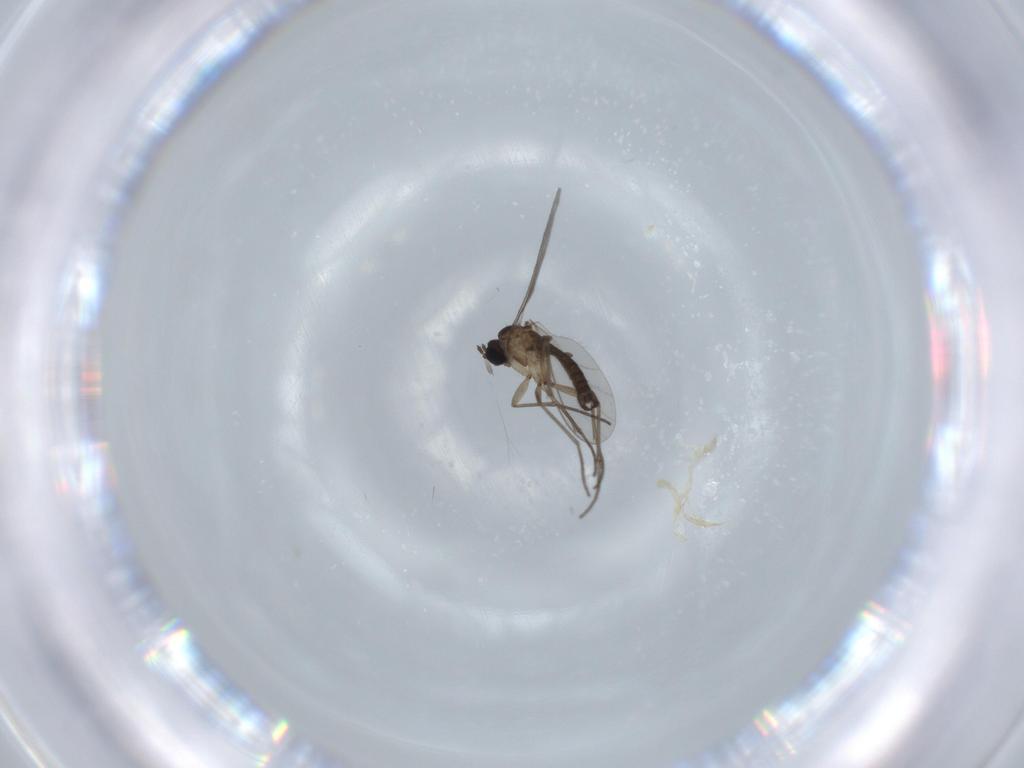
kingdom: Animalia
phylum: Arthropoda
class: Insecta
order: Diptera
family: Sciaridae
